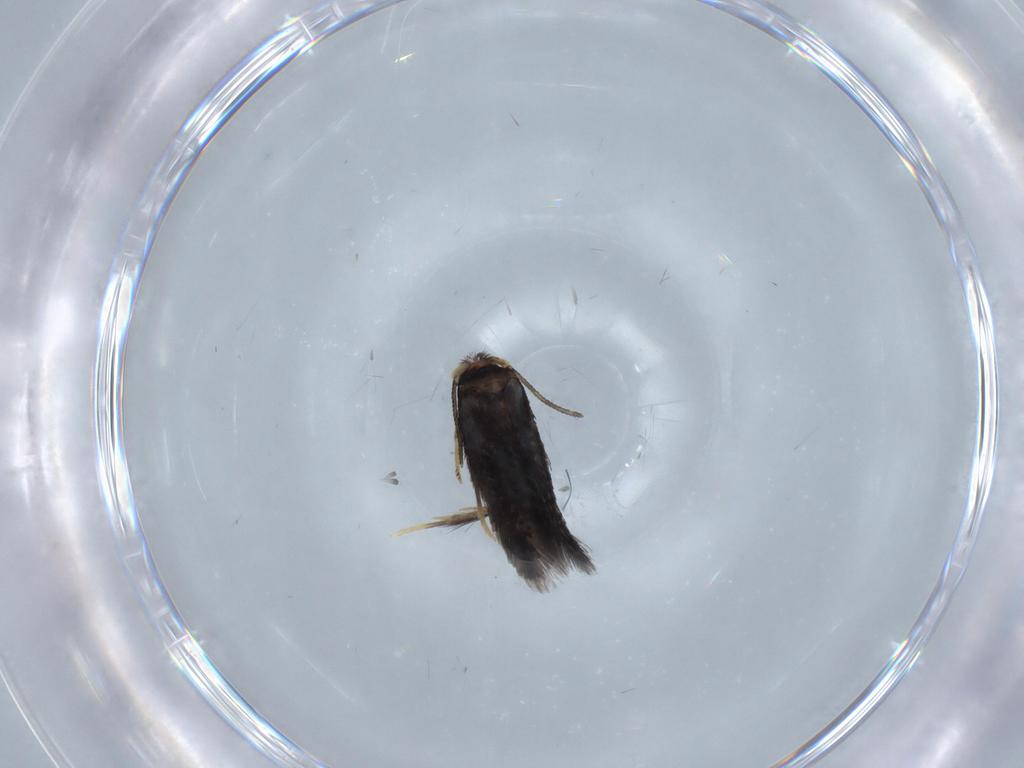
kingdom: Animalia
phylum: Arthropoda
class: Insecta
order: Lepidoptera
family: Nepticulidae
